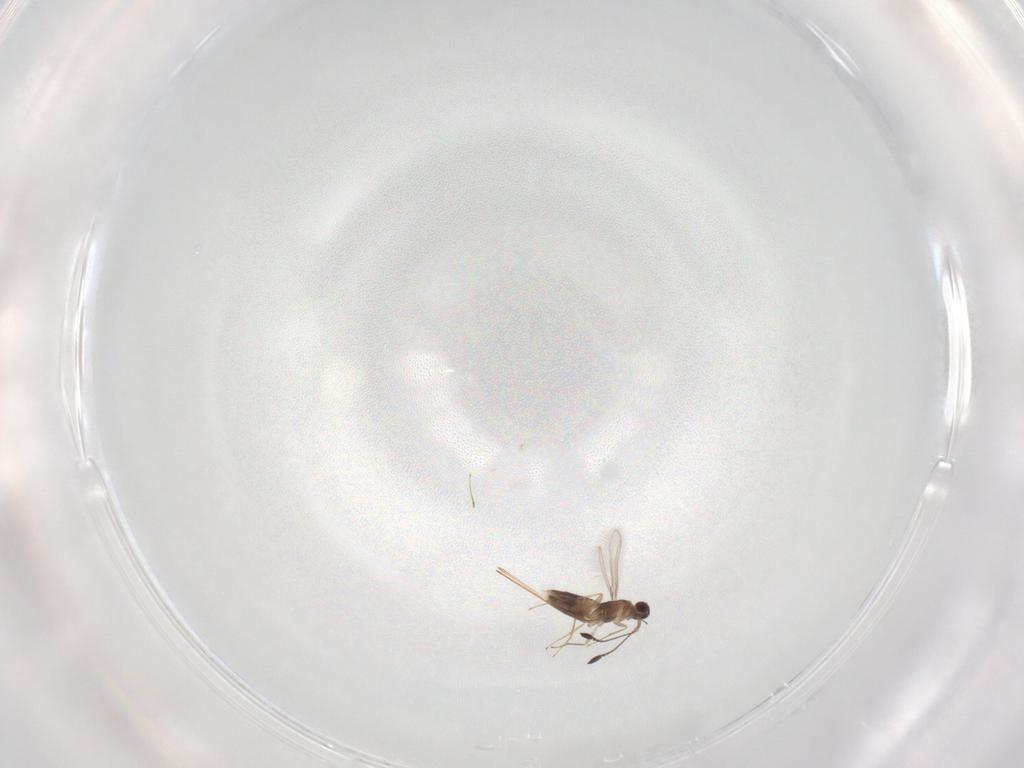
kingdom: Animalia
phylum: Arthropoda
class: Insecta
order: Hymenoptera
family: Mymaridae
